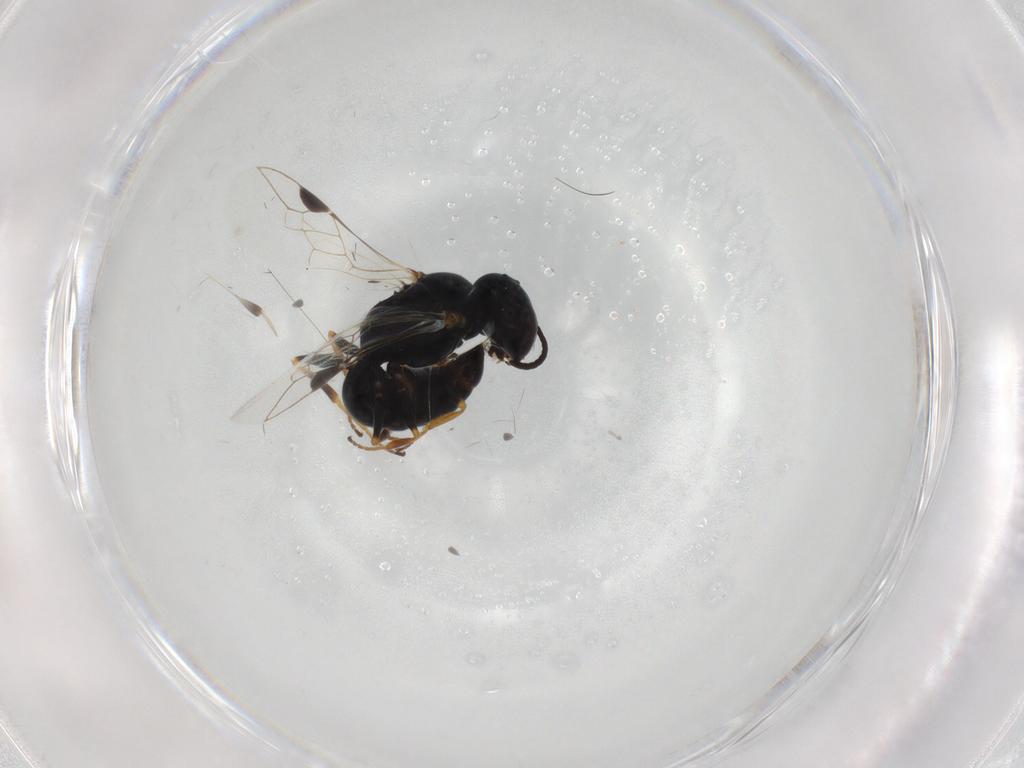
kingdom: Animalia
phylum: Arthropoda
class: Insecta
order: Hymenoptera
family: Crabronidae
